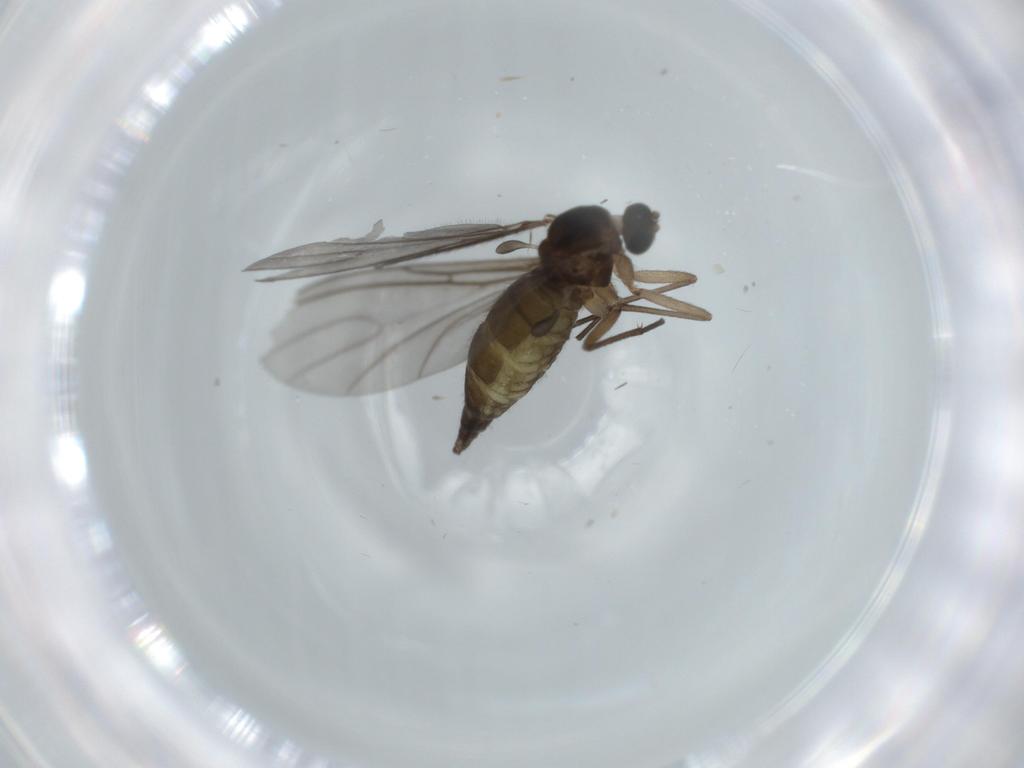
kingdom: Animalia
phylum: Arthropoda
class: Insecta
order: Diptera
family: Sciaridae
